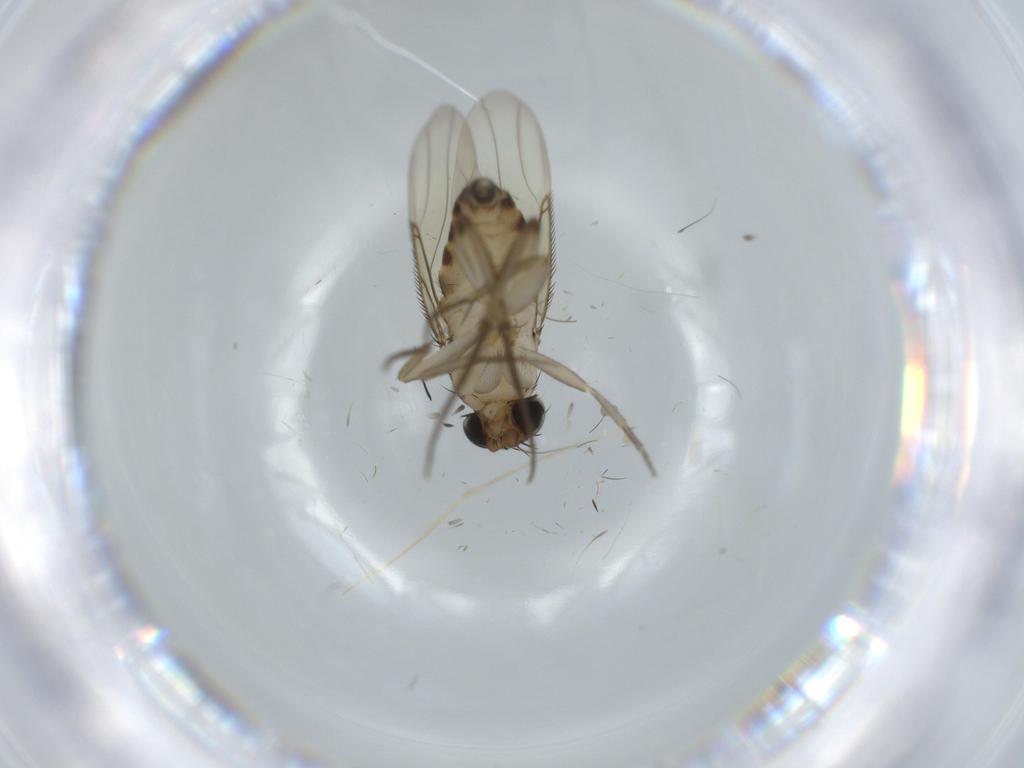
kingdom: Animalia
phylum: Arthropoda
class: Insecta
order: Diptera
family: Phoridae
